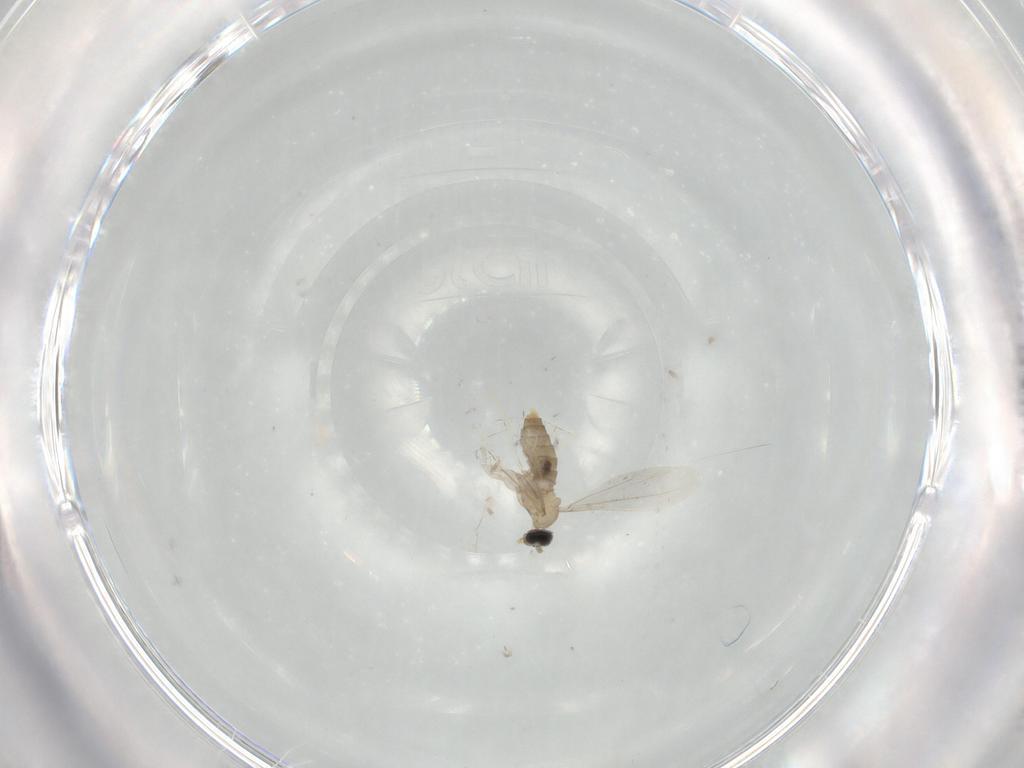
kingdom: Animalia
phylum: Arthropoda
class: Insecta
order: Diptera
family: Cecidomyiidae
